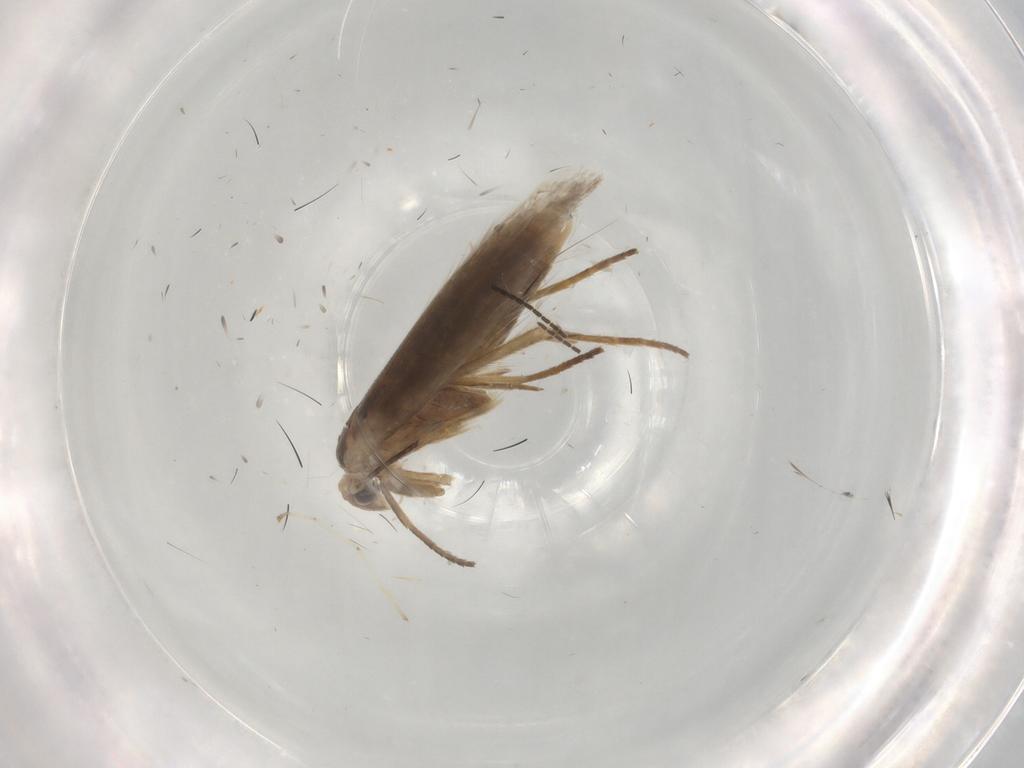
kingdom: Animalia
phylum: Arthropoda
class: Insecta
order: Lepidoptera
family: Bucculatricidae
